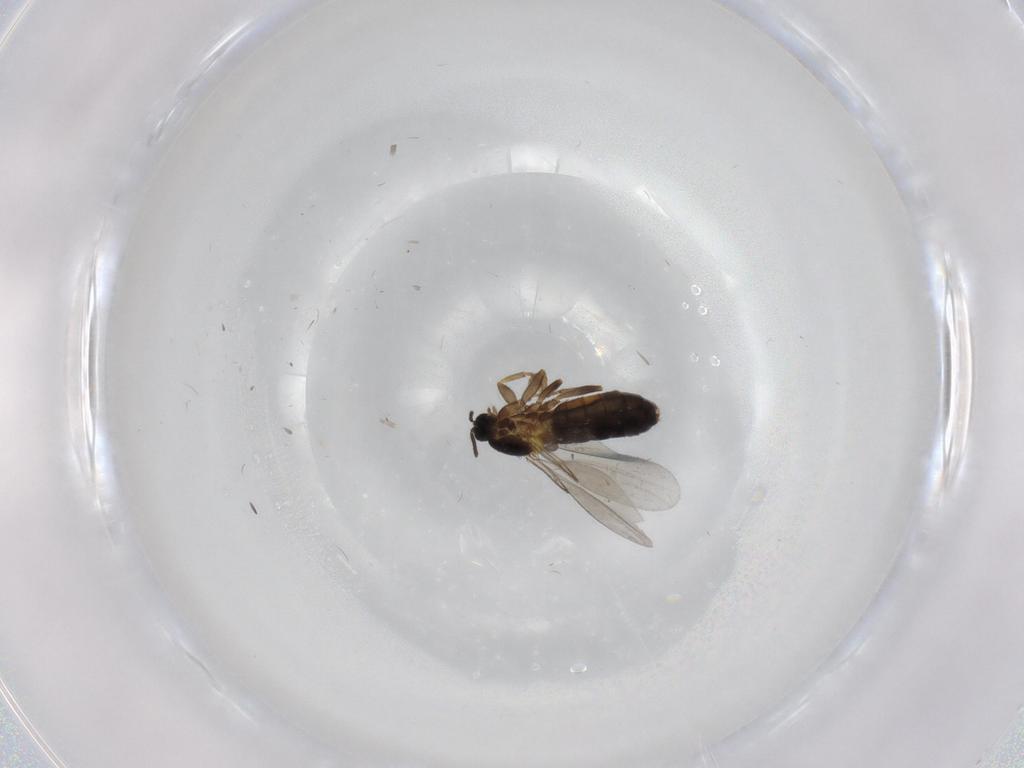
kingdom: Animalia
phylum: Arthropoda
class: Insecta
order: Diptera
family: Scatopsidae
